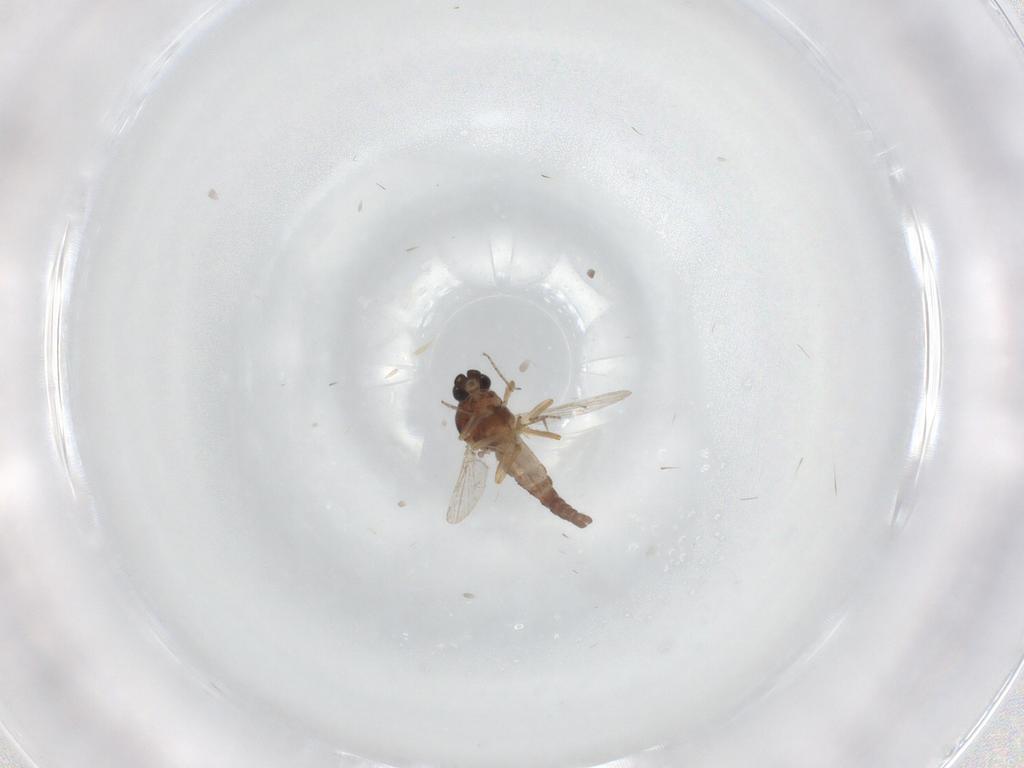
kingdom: Animalia
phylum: Arthropoda
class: Insecta
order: Diptera
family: Ceratopogonidae
